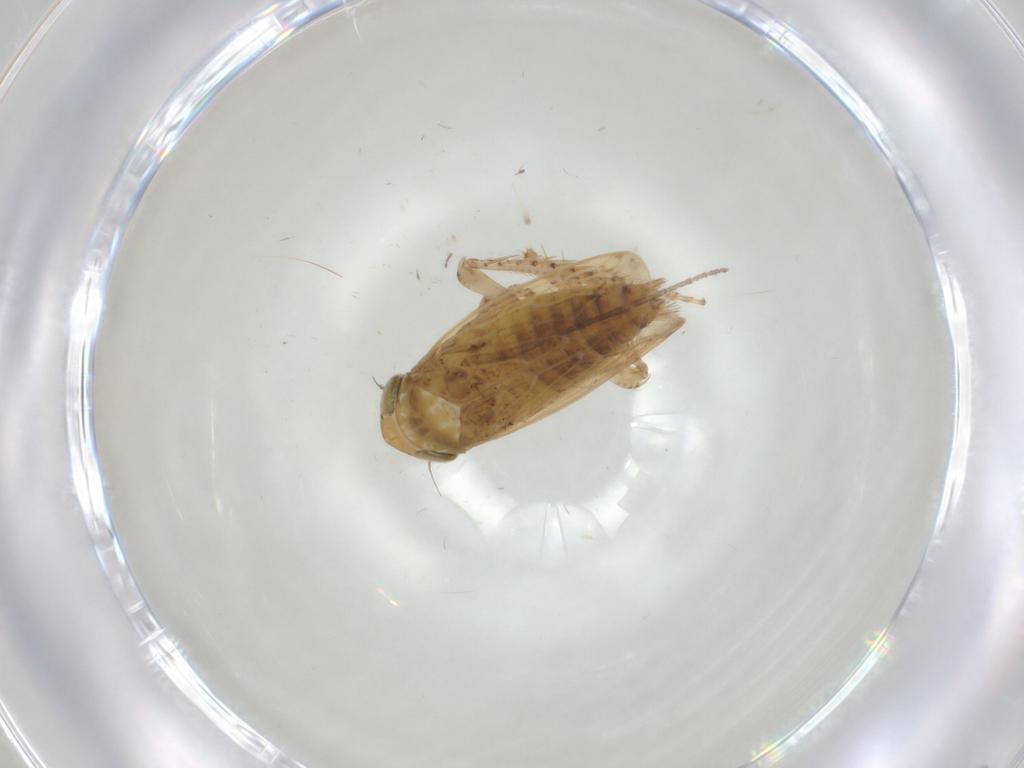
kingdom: Animalia
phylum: Arthropoda
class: Insecta
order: Hemiptera
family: Cicadellidae
